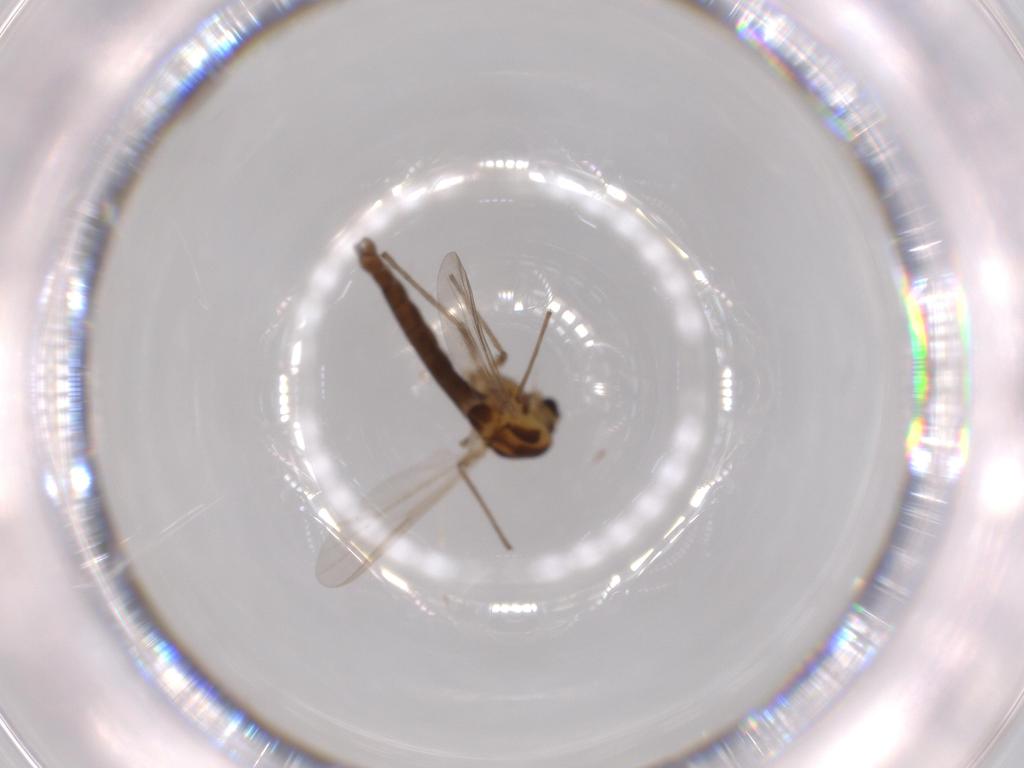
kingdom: Animalia
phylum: Arthropoda
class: Insecta
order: Diptera
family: Chironomidae
